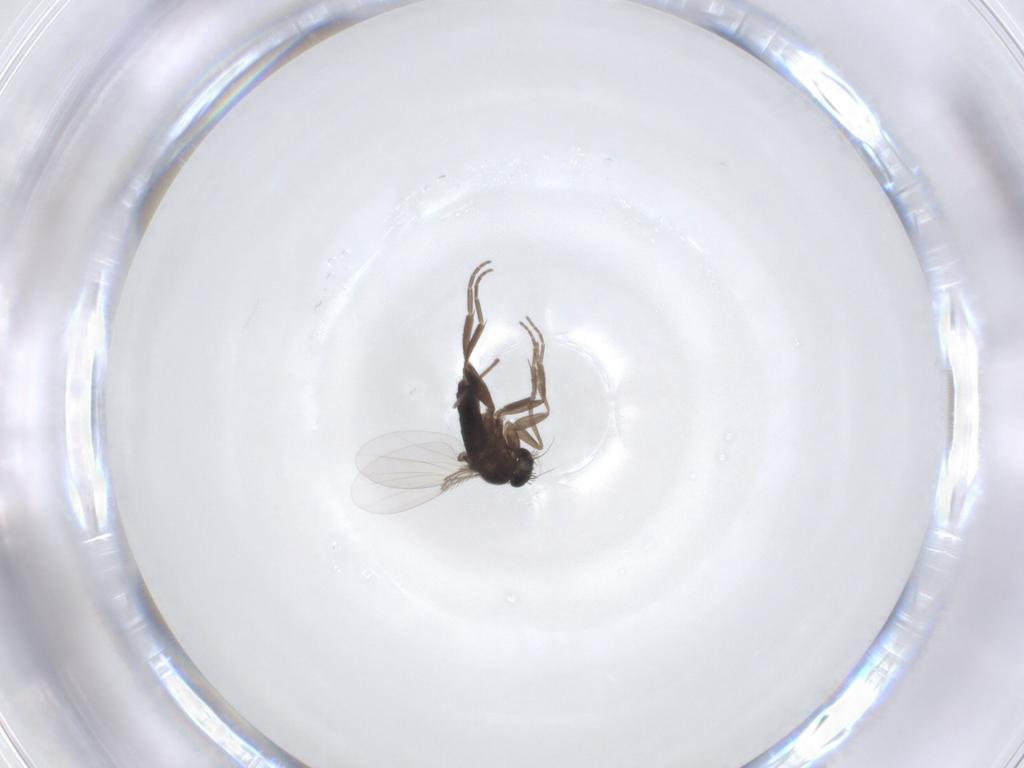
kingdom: Animalia
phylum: Arthropoda
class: Insecta
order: Diptera
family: Chironomidae
